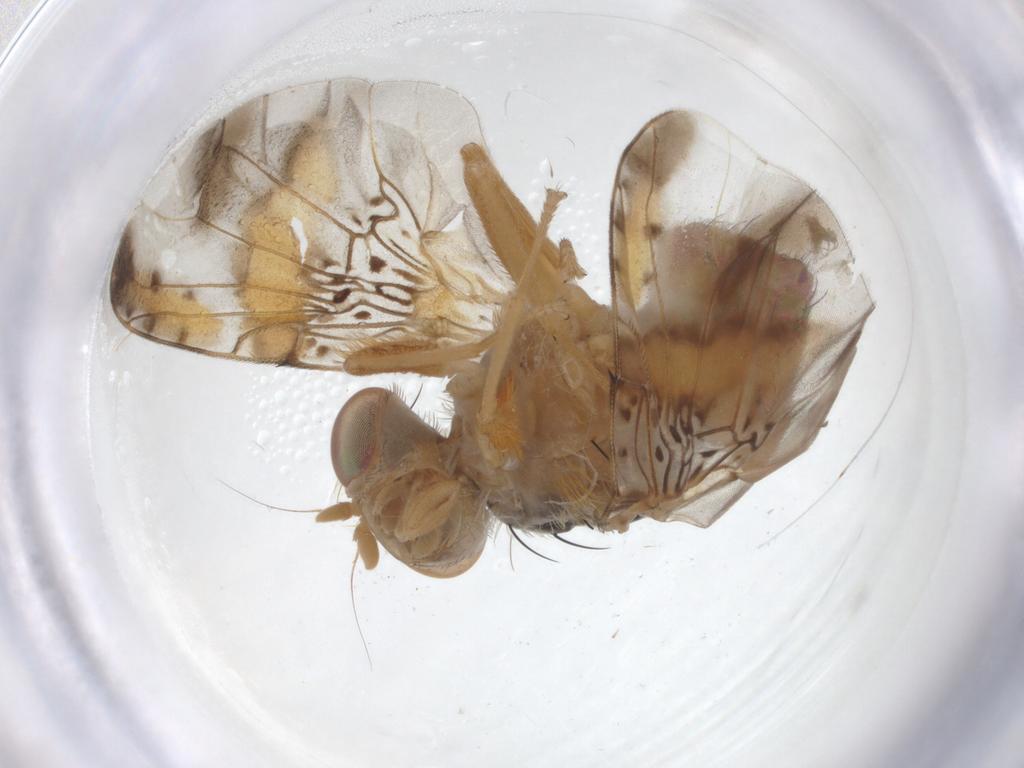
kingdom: Animalia
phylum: Arthropoda
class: Insecta
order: Diptera
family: Tephritidae
